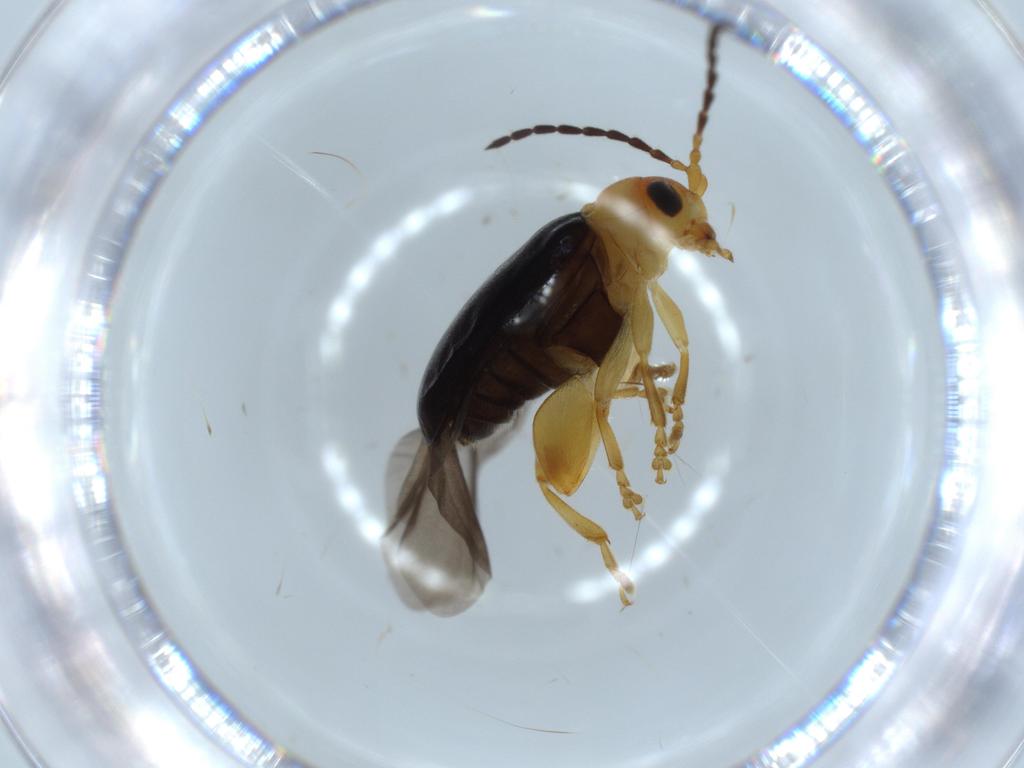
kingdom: Animalia
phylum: Arthropoda
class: Insecta
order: Coleoptera
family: Chrysomelidae
